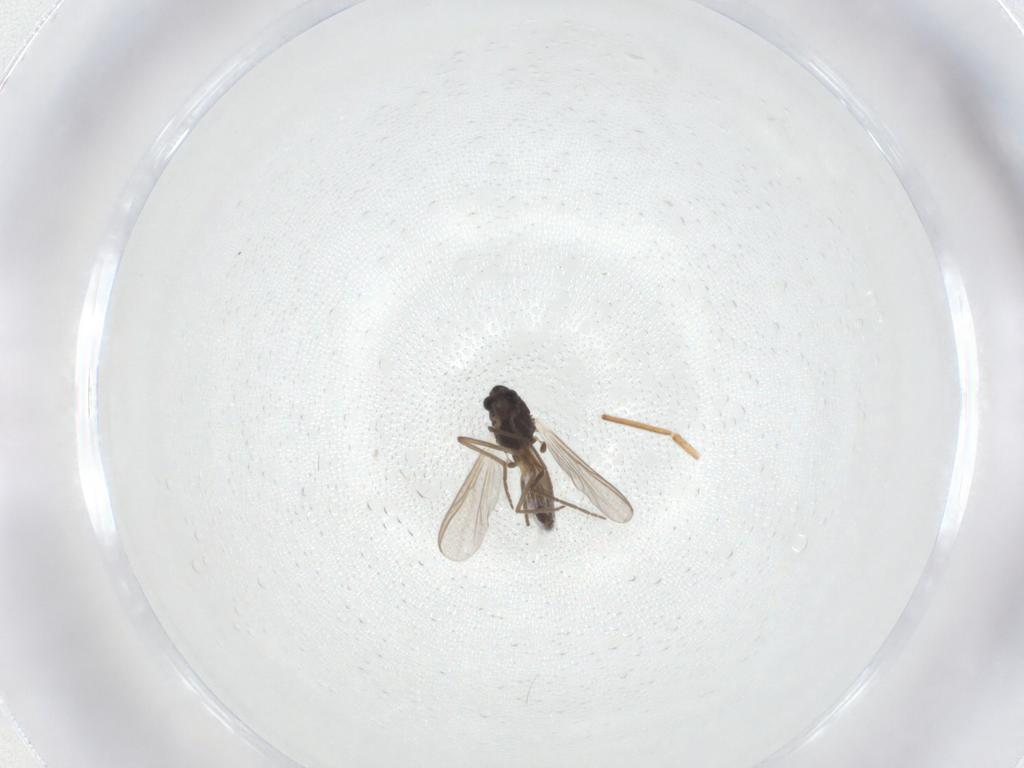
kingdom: Animalia
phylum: Arthropoda
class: Insecta
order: Diptera
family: Chironomidae
